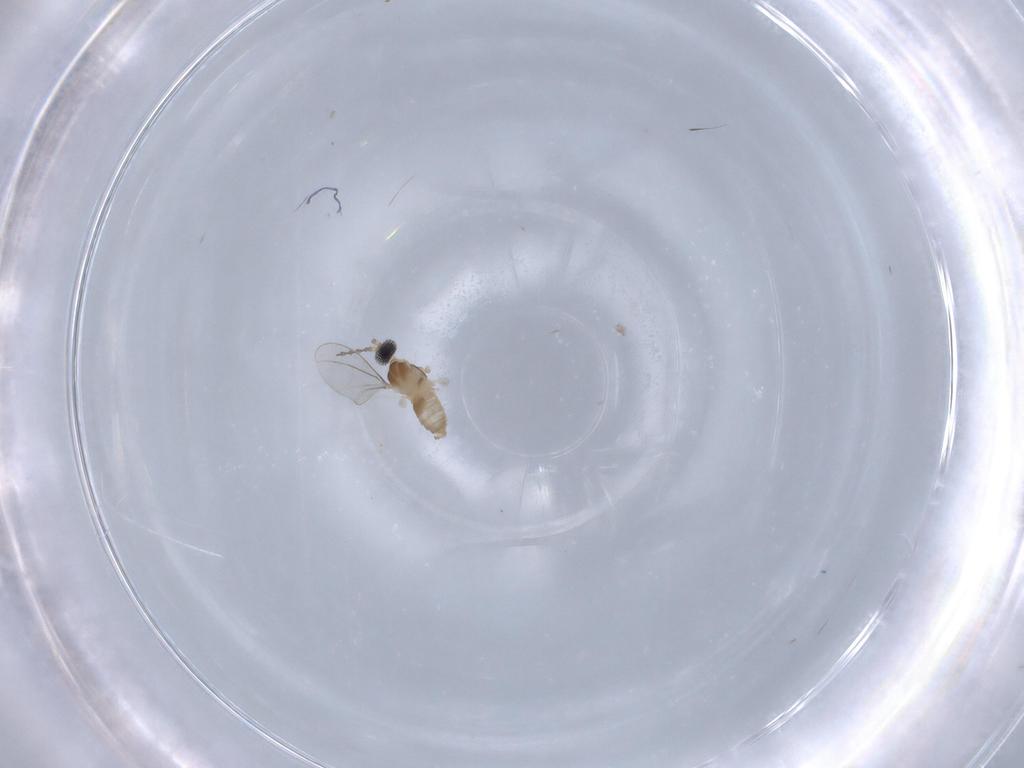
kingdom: Animalia
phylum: Arthropoda
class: Insecta
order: Diptera
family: Cecidomyiidae
